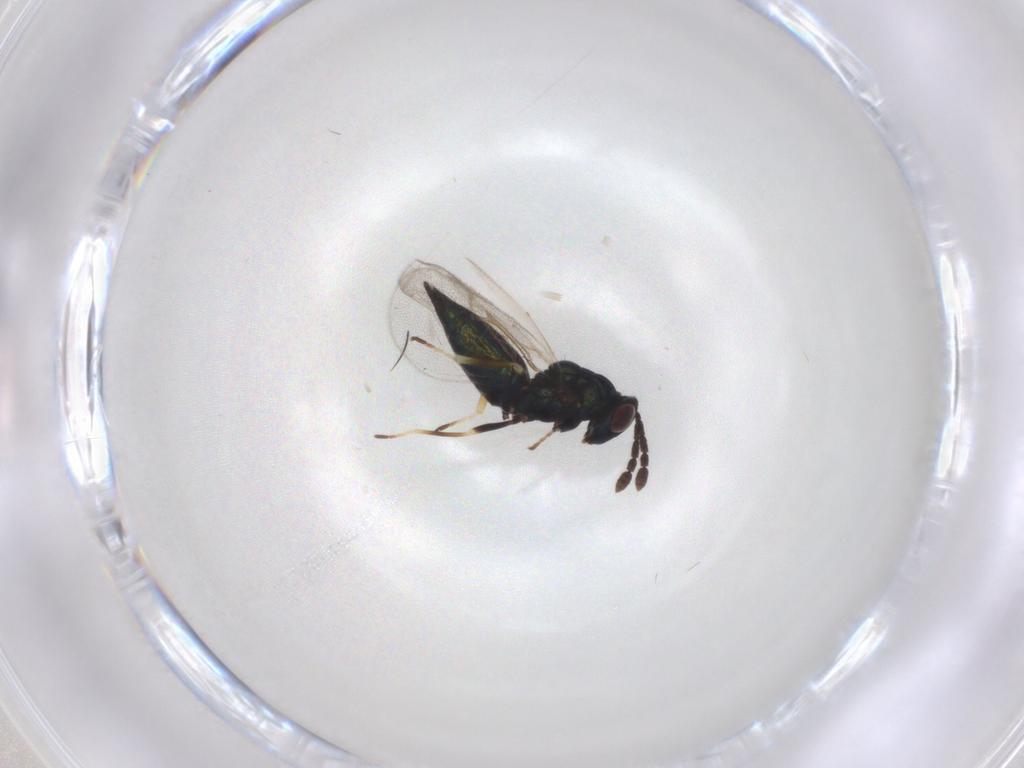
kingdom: Animalia
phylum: Arthropoda
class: Insecta
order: Hymenoptera
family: Eulophidae
